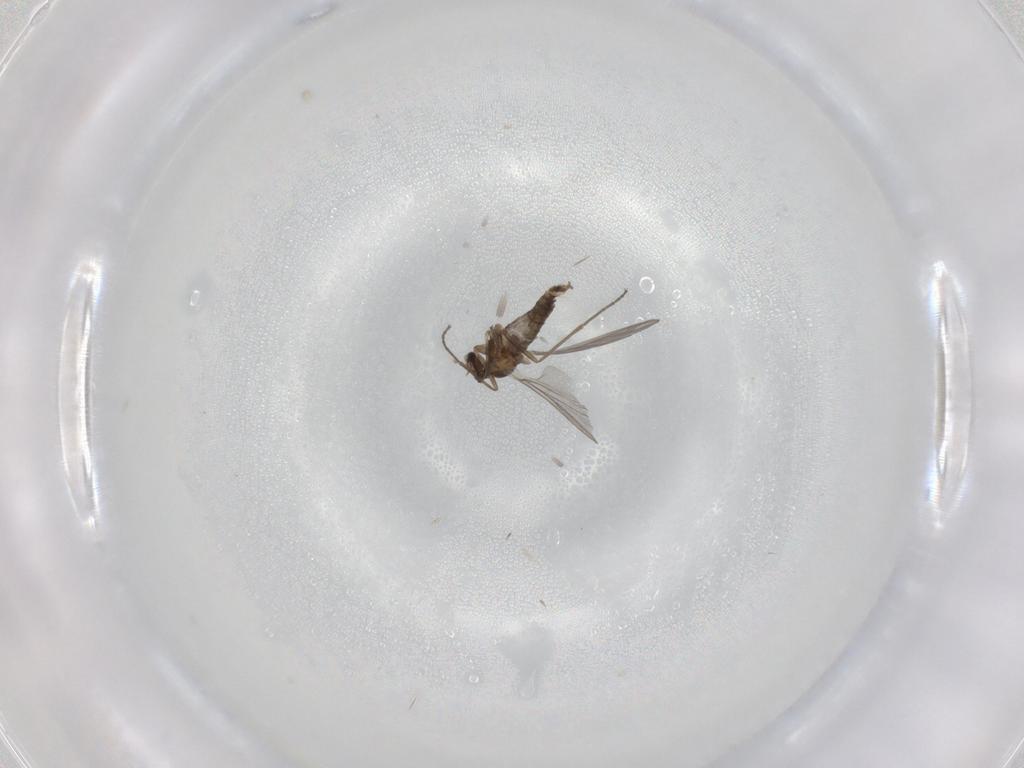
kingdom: Animalia
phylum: Arthropoda
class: Insecta
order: Diptera
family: Cecidomyiidae
